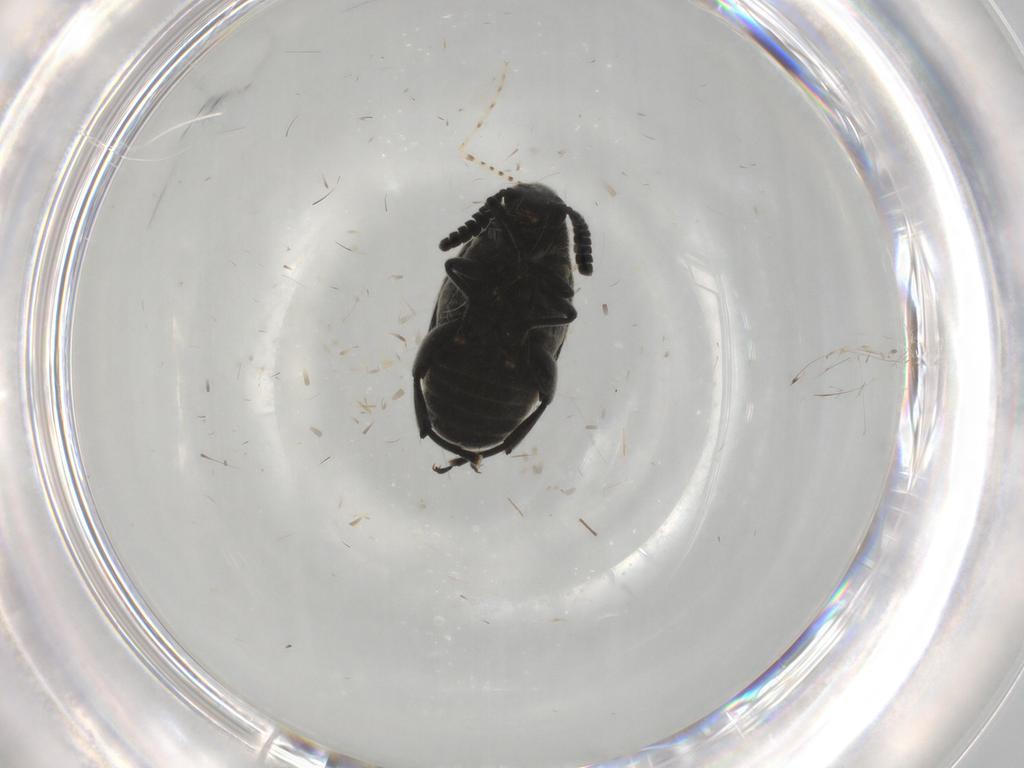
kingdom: Animalia
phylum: Arthropoda
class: Insecta
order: Coleoptera
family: Chrysomelidae
